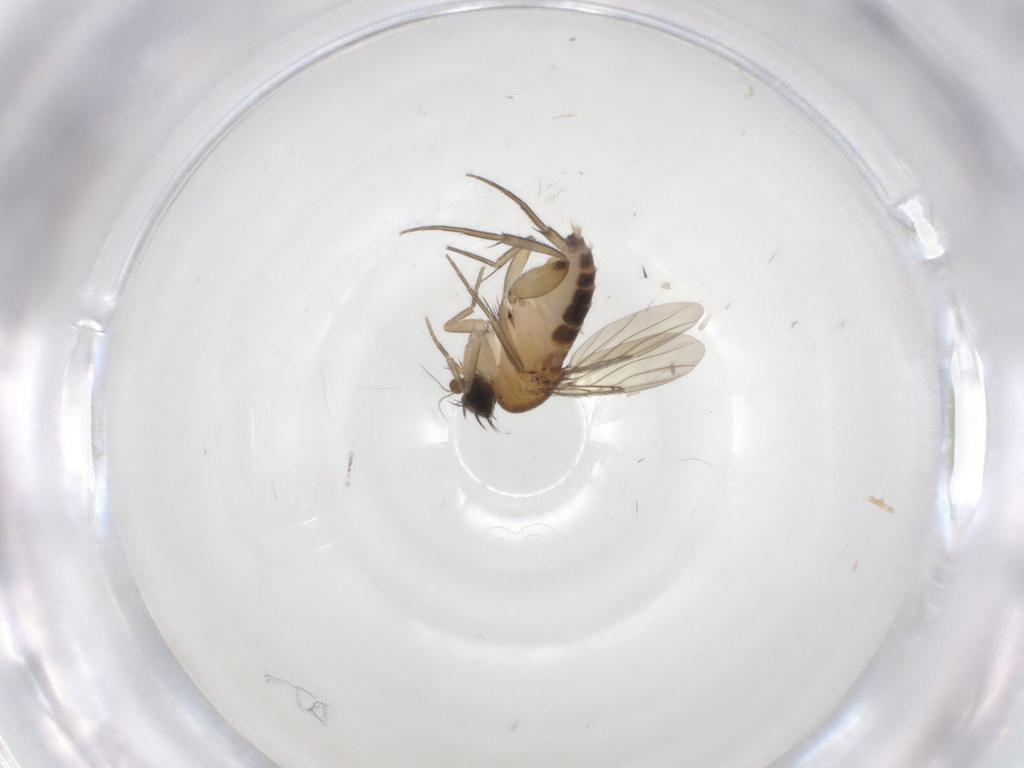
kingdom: Animalia
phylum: Arthropoda
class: Insecta
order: Diptera
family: Phoridae
